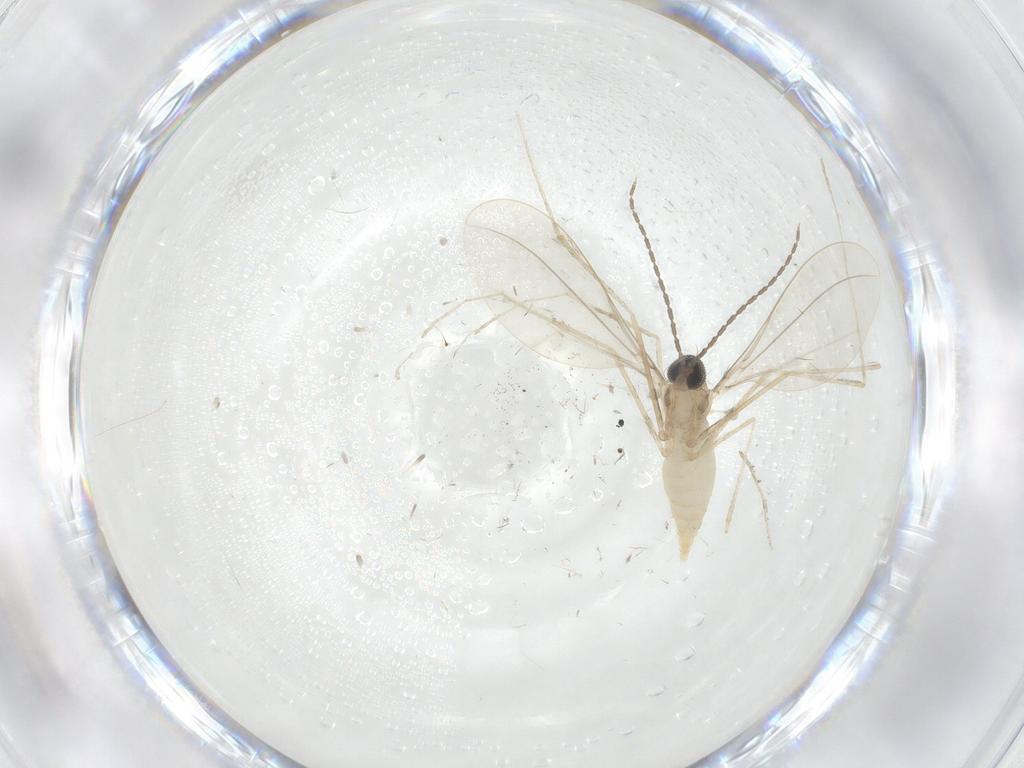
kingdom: Animalia
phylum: Arthropoda
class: Insecta
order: Diptera
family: Cecidomyiidae
